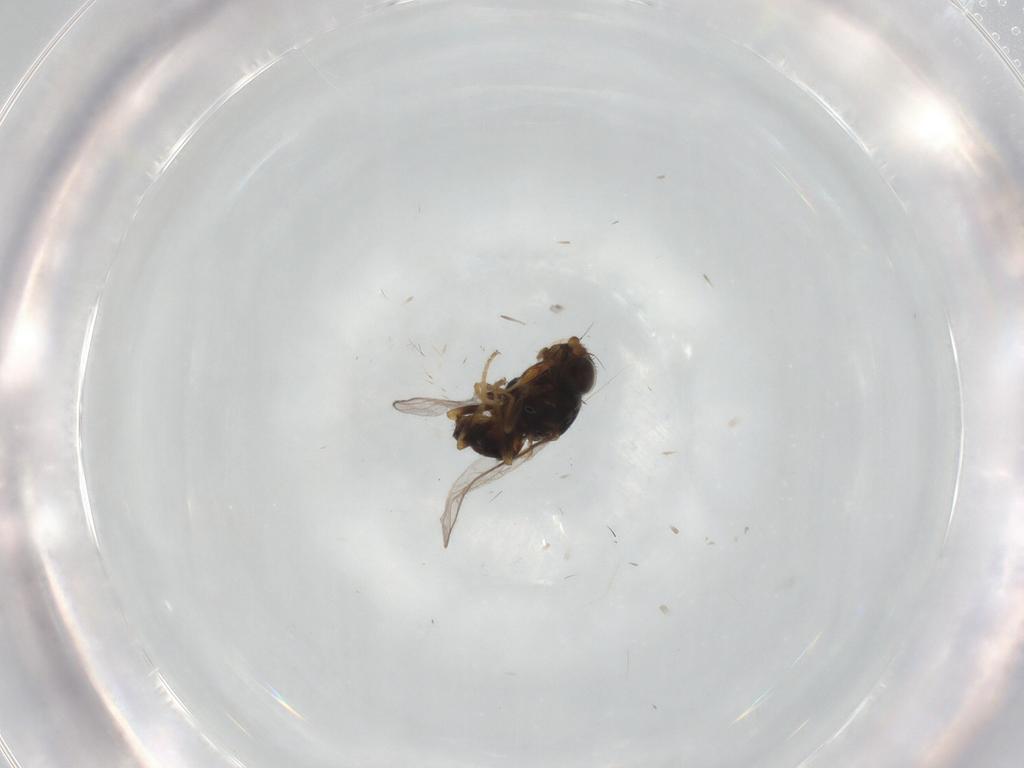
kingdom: Animalia
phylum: Arthropoda
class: Insecta
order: Diptera
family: Chloropidae
